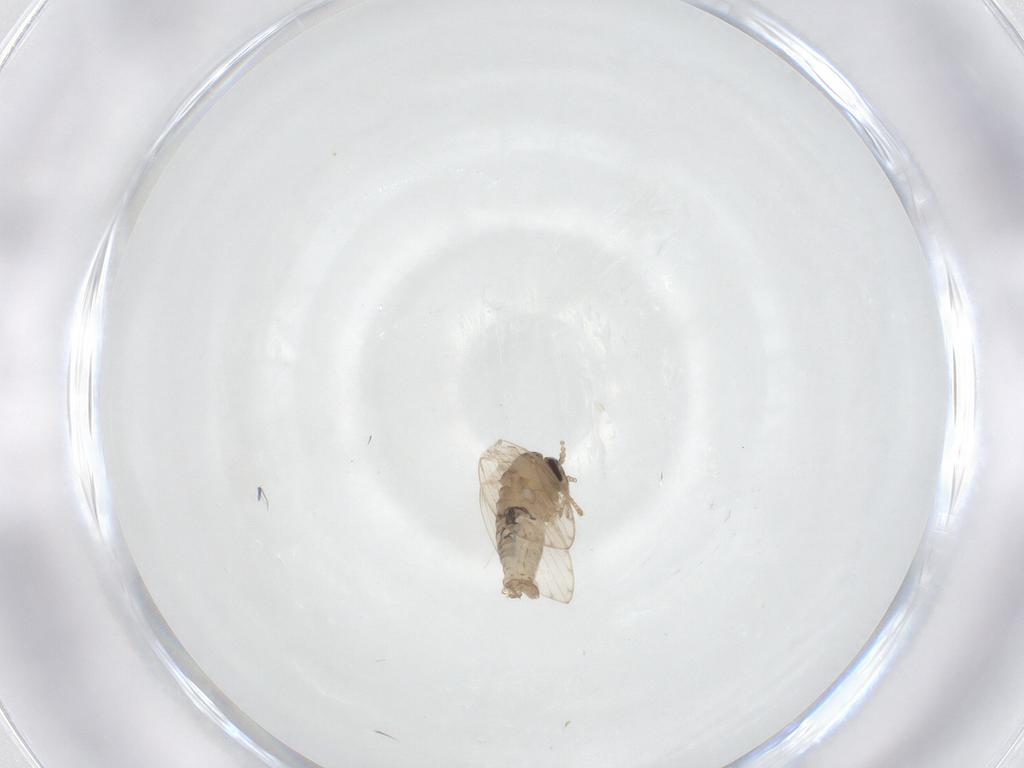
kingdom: Animalia
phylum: Arthropoda
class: Insecta
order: Diptera
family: Psychodidae
